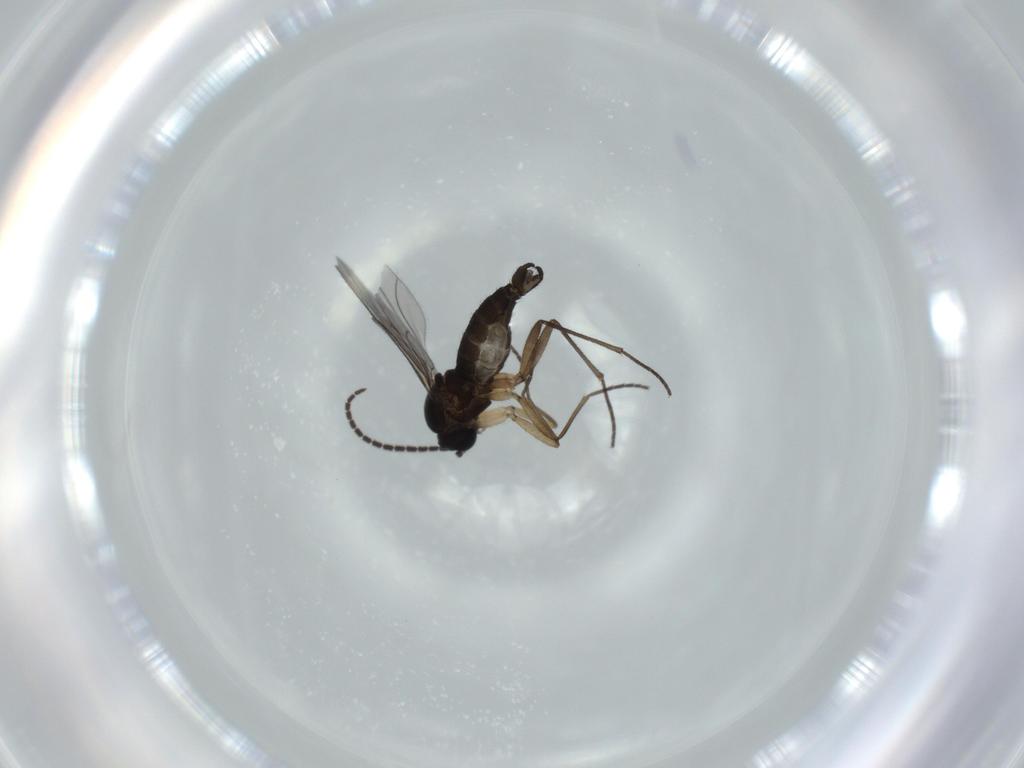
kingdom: Animalia
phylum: Arthropoda
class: Insecta
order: Diptera
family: Sciaridae
